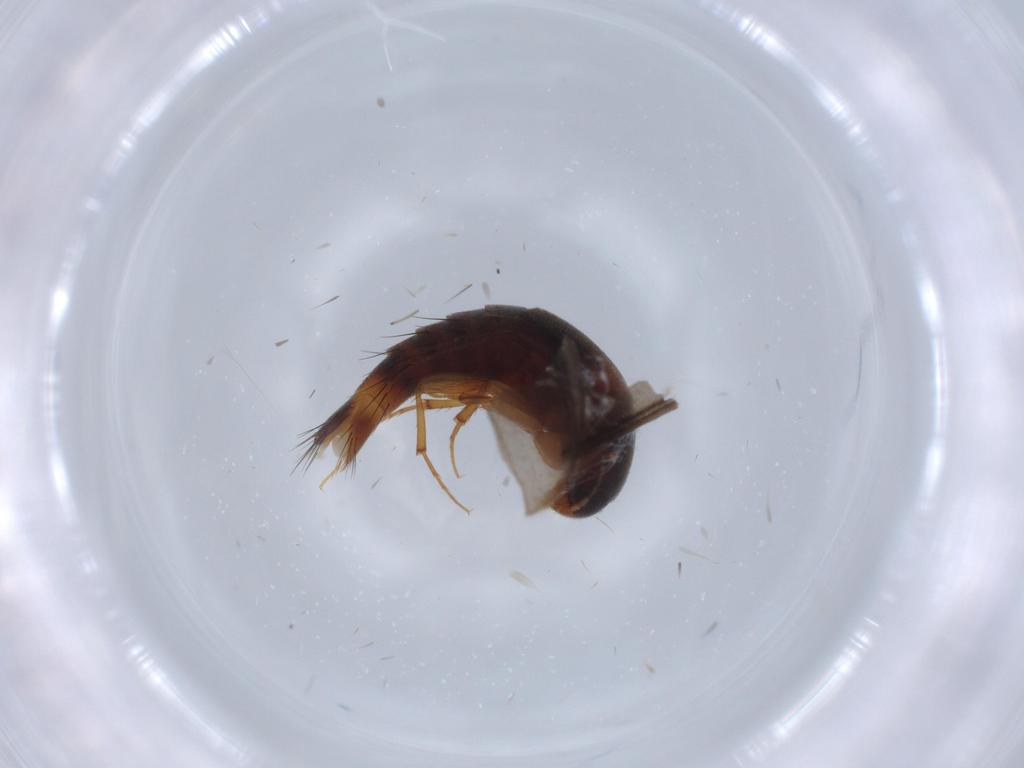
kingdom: Animalia
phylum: Arthropoda
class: Insecta
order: Coleoptera
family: Staphylinidae
